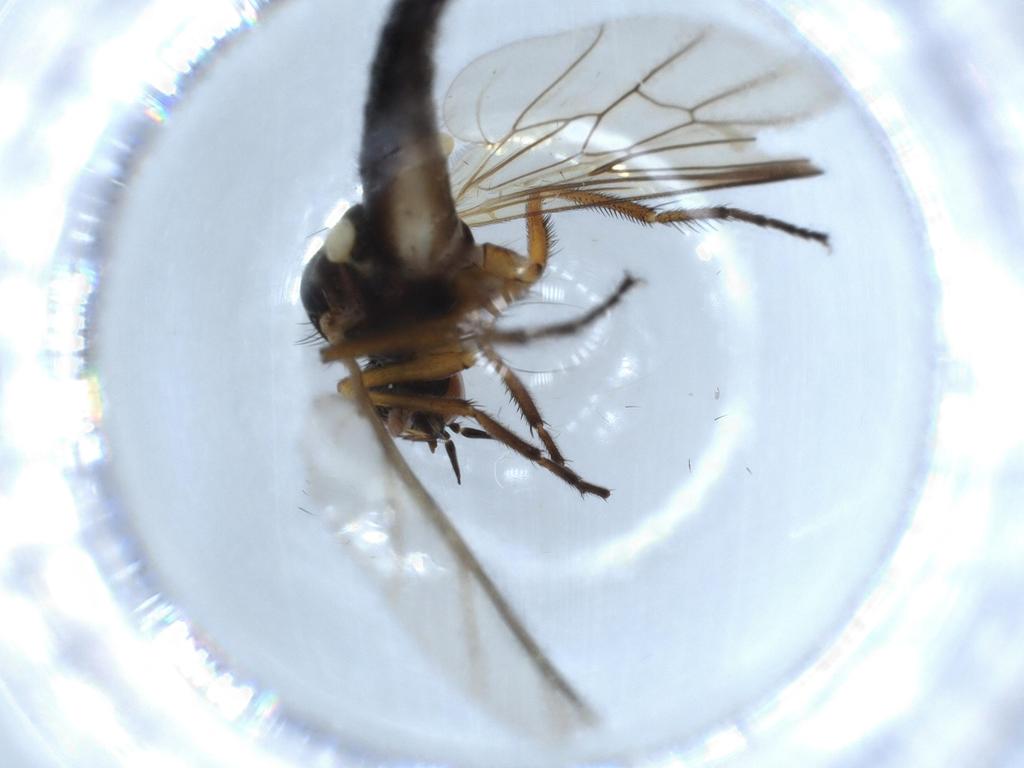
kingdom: Animalia
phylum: Arthropoda
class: Insecta
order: Diptera
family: Empididae
